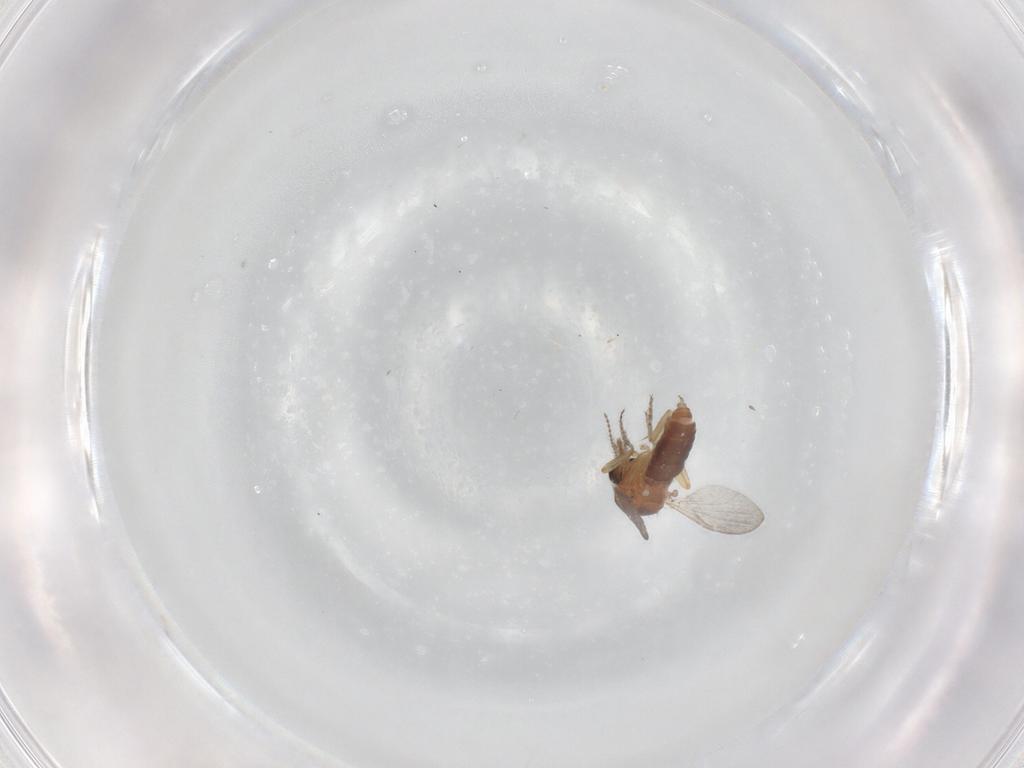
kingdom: Animalia
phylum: Arthropoda
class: Insecta
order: Diptera
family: Ceratopogonidae
